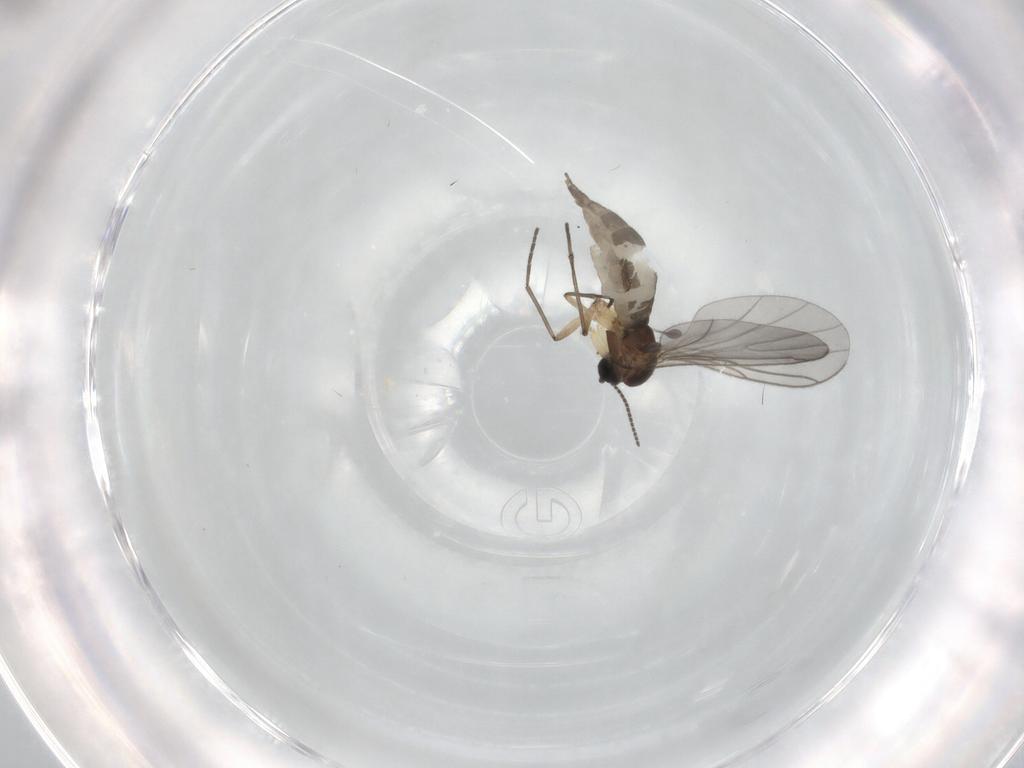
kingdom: Animalia
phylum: Arthropoda
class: Insecta
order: Diptera
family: Sciaridae
